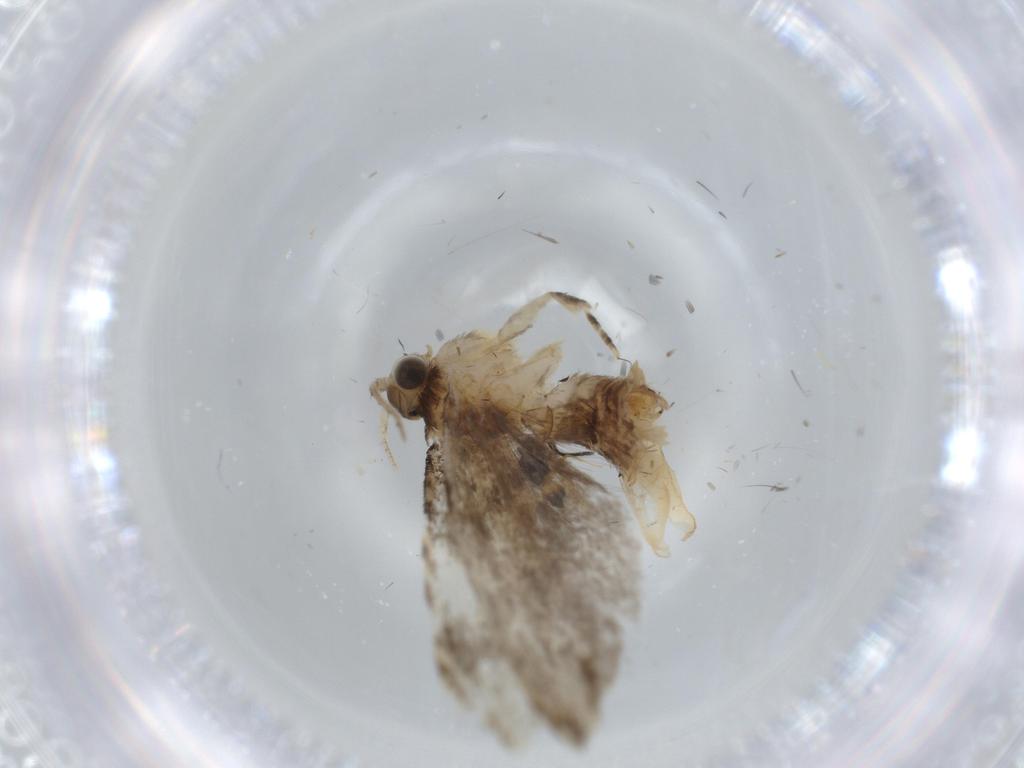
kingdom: Animalia
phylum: Arthropoda
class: Insecta
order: Lepidoptera
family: Tineidae
